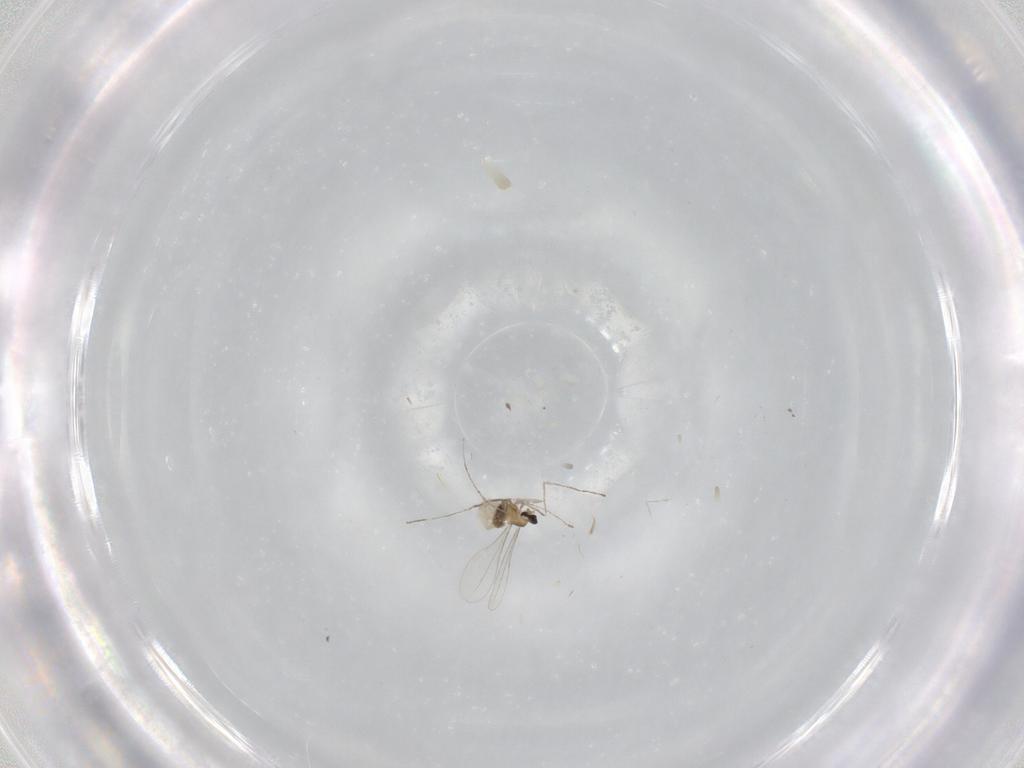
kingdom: Animalia
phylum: Arthropoda
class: Insecta
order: Diptera
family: Cecidomyiidae
